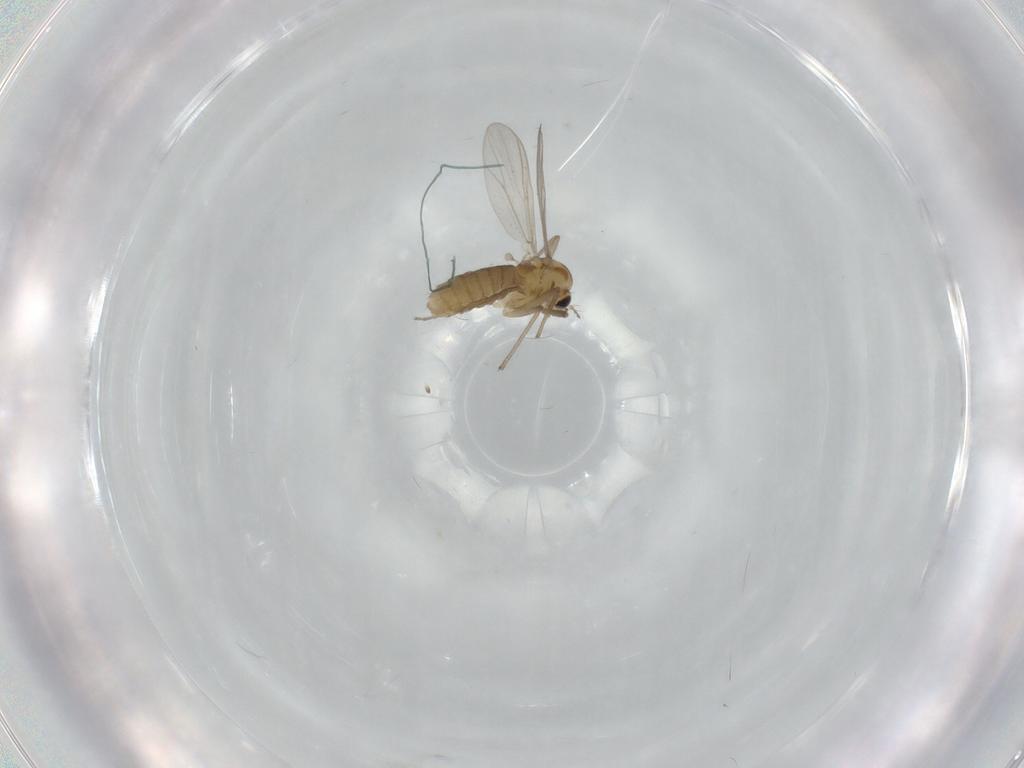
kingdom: Animalia
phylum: Arthropoda
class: Insecta
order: Diptera
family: Chironomidae
